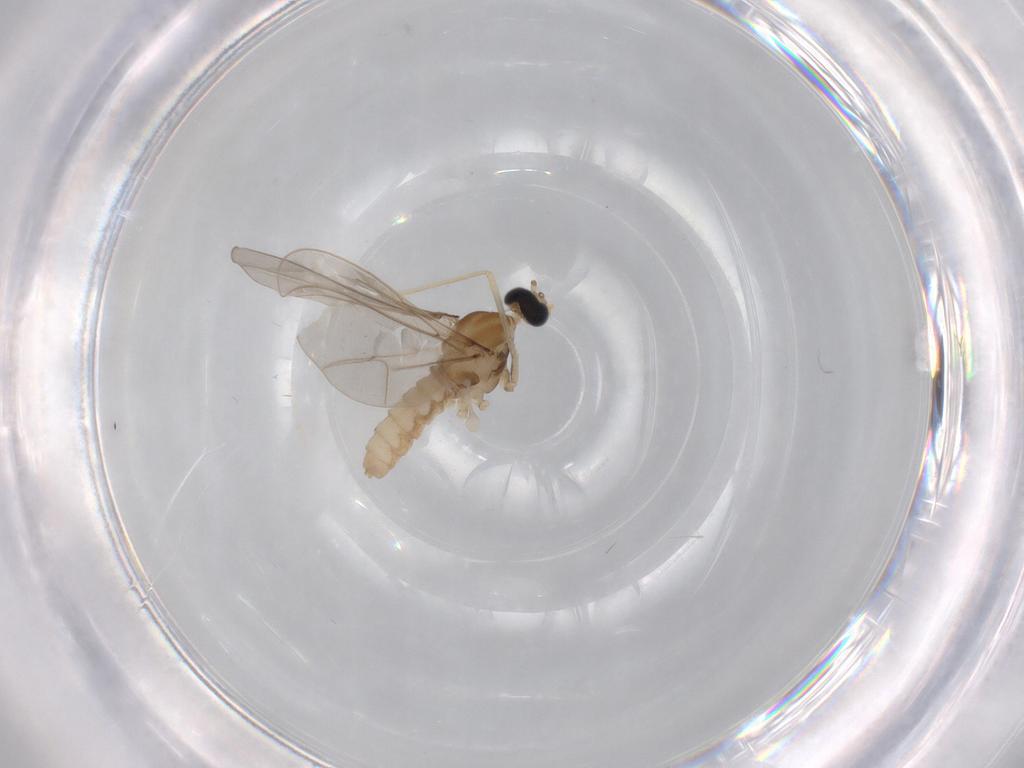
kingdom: Animalia
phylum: Arthropoda
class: Insecta
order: Diptera
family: Cecidomyiidae
